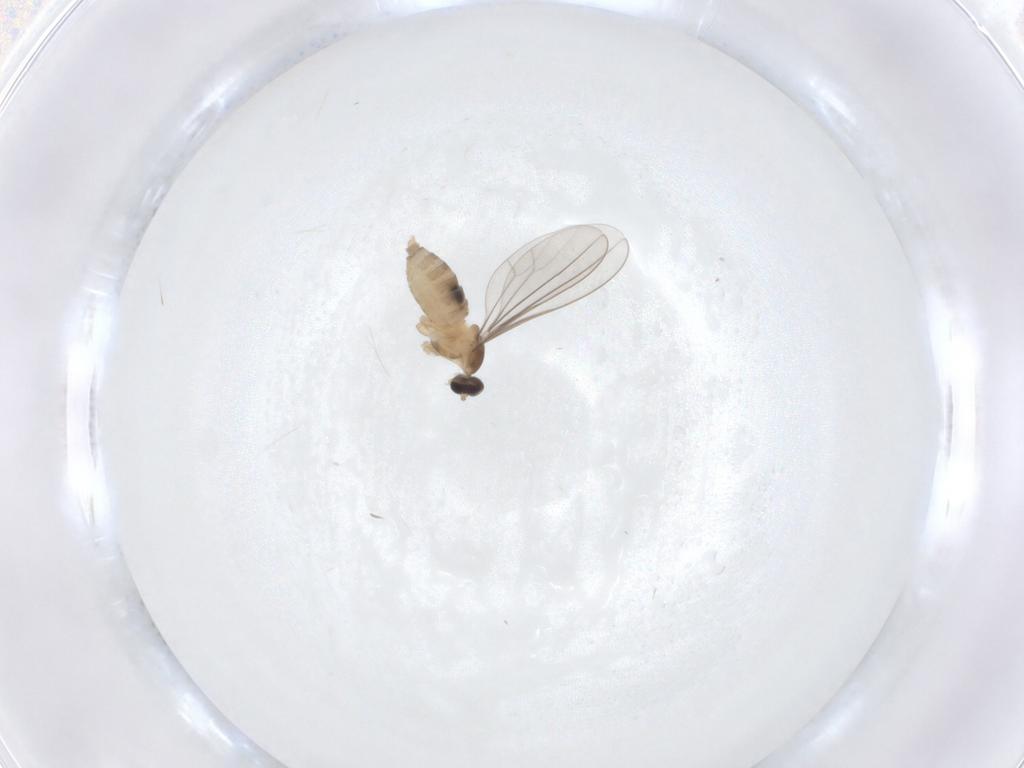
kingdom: Animalia
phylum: Arthropoda
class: Insecta
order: Diptera
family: Cecidomyiidae
